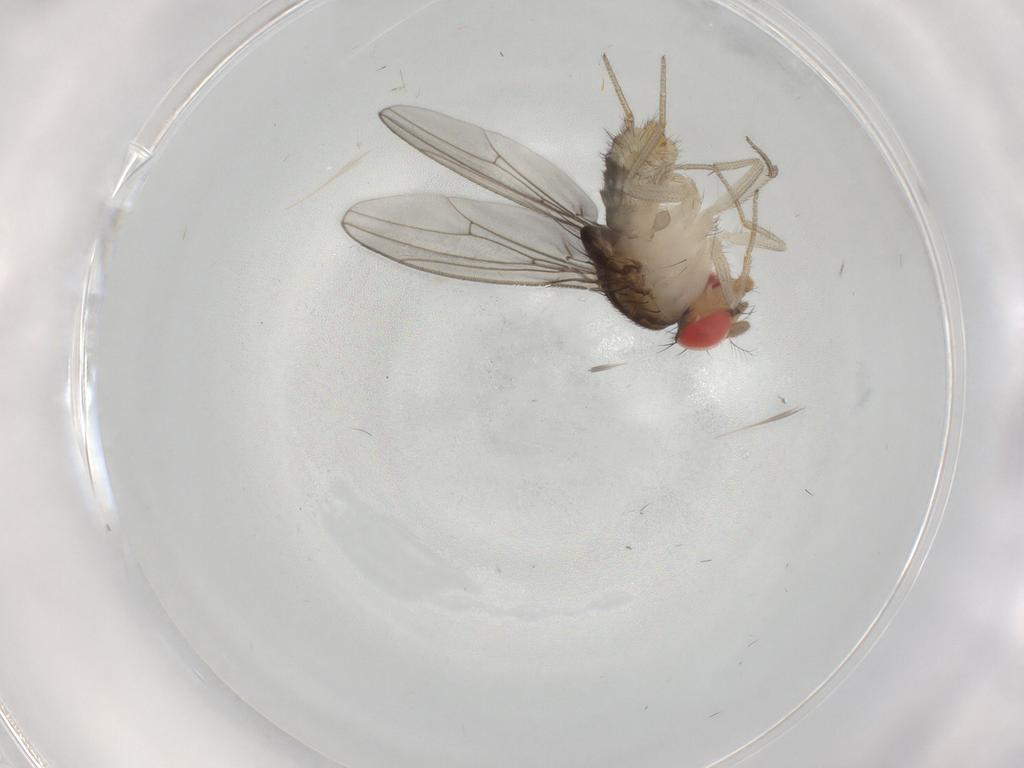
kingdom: Animalia
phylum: Arthropoda
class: Insecta
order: Diptera
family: Drosophilidae
